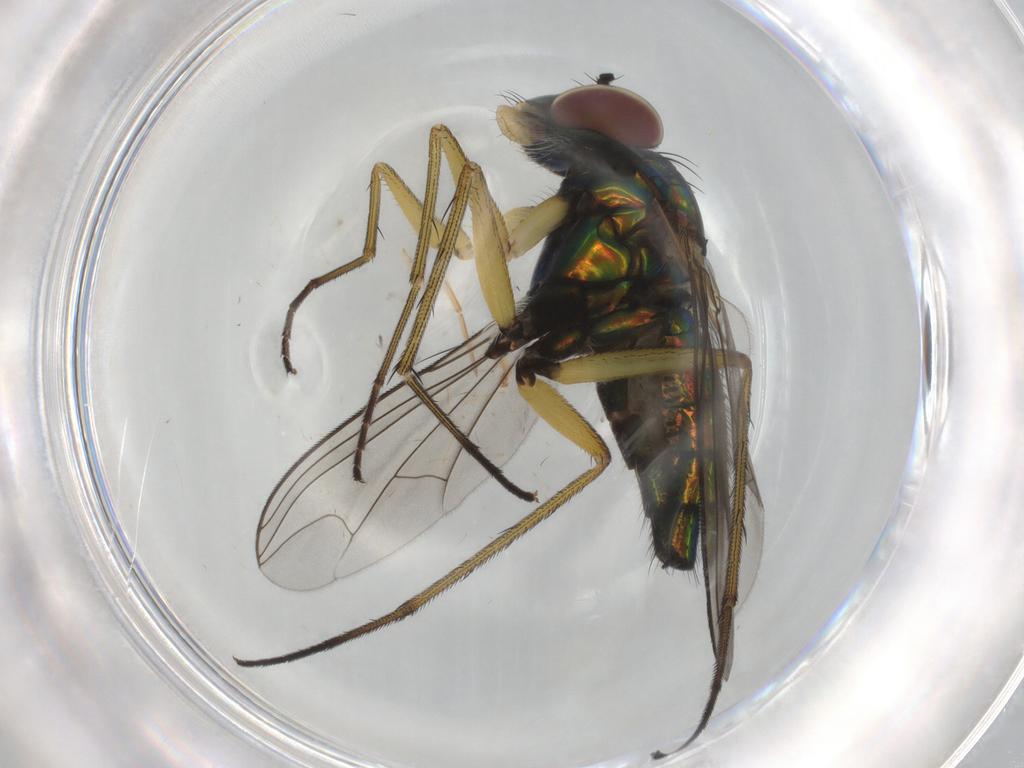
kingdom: Animalia
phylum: Arthropoda
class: Insecta
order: Diptera
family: Dolichopodidae
